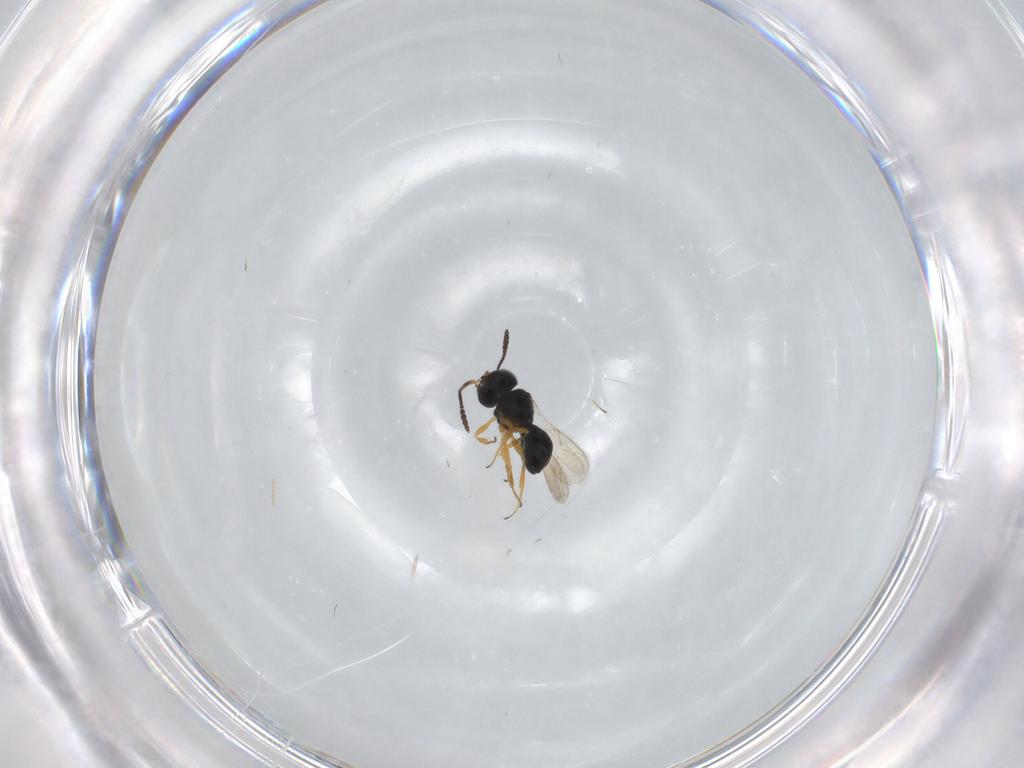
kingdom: Animalia
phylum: Arthropoda
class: Insecta
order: Hymenoptera
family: Scelionidae
